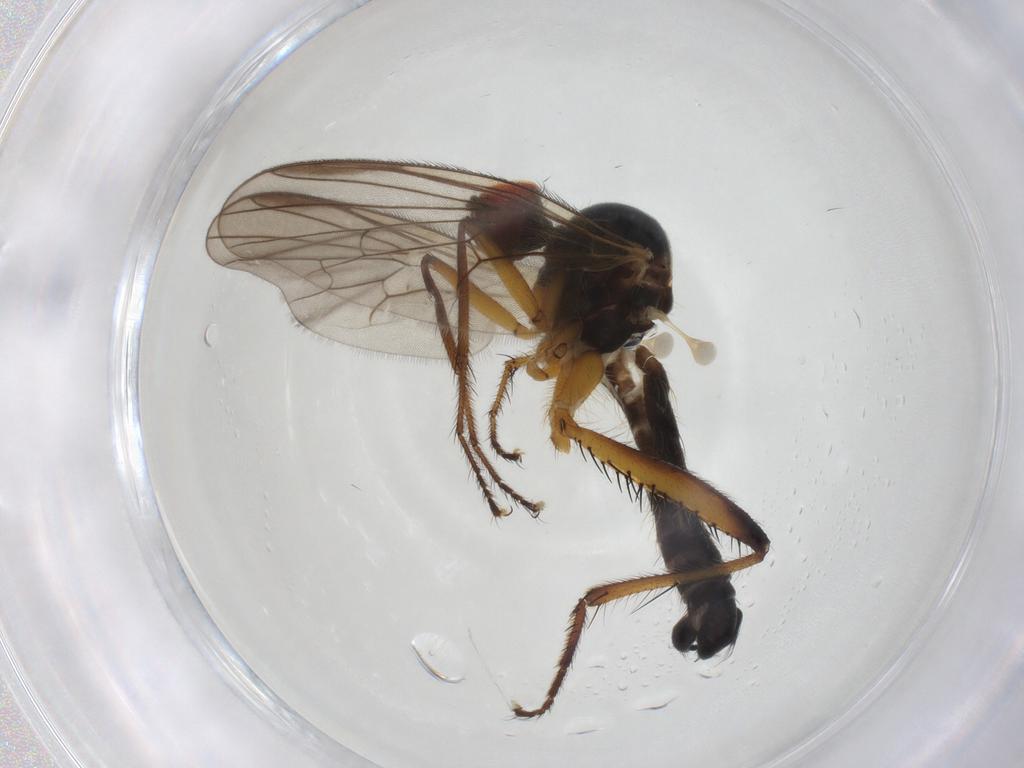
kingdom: Animalia
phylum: Arthropoda
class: Insecta
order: Diptera
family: Hybotidae
